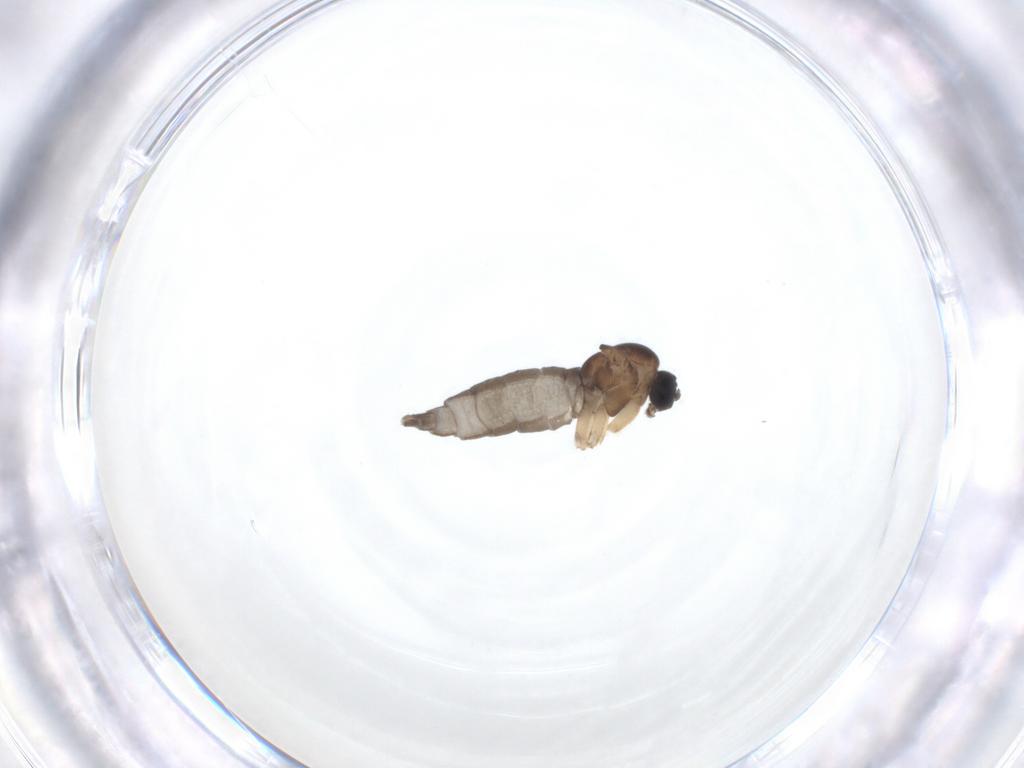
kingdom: Animalia
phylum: Arthropoda
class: Insecta
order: Diptera
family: Sciaridae
